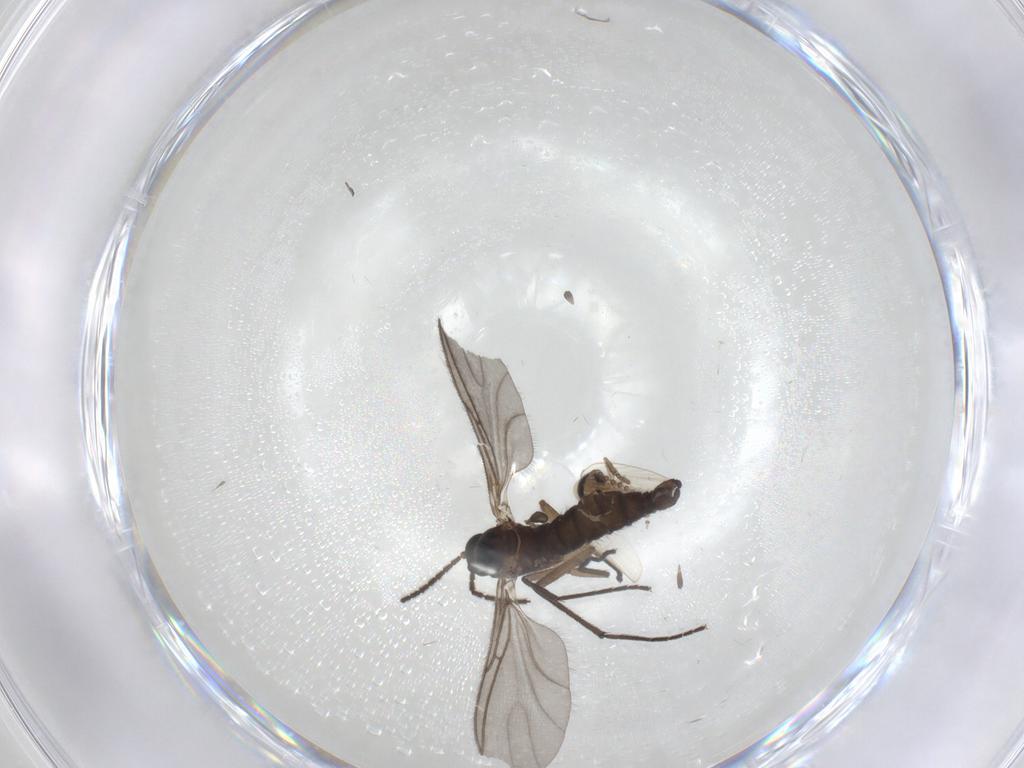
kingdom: Animalia
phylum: Arthropoda
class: Insecta
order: Diptera
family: Psychodidae
